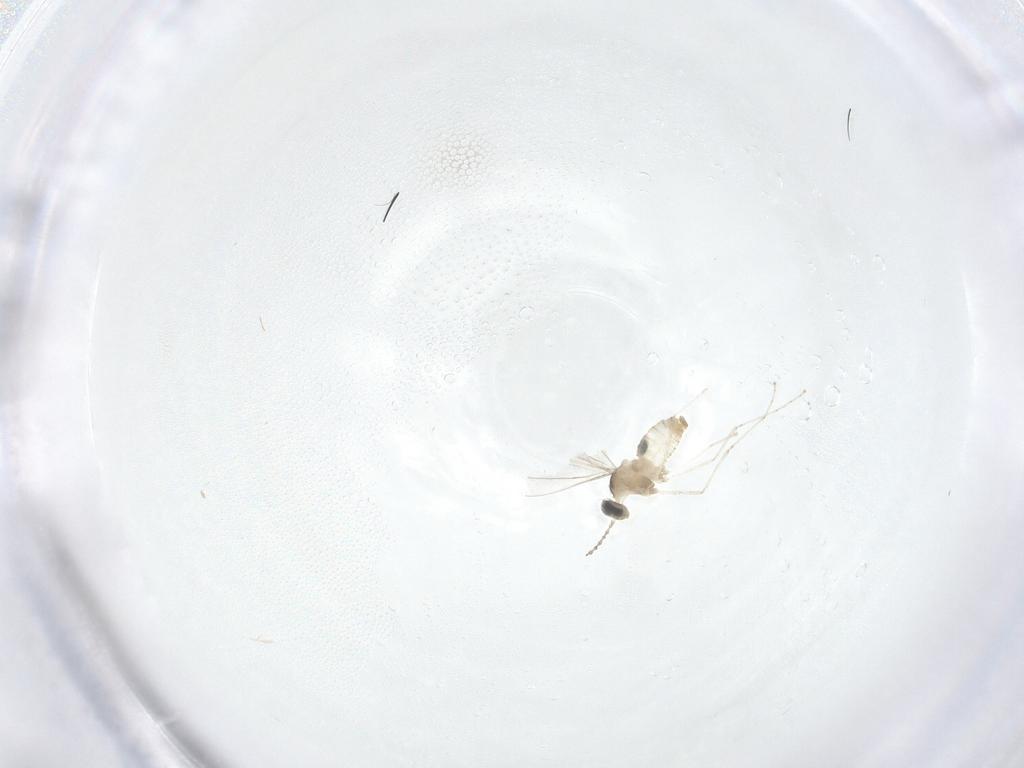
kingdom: Animalia
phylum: Arthropoda
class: Insecta
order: Diptera
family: Cecidomyiidae
